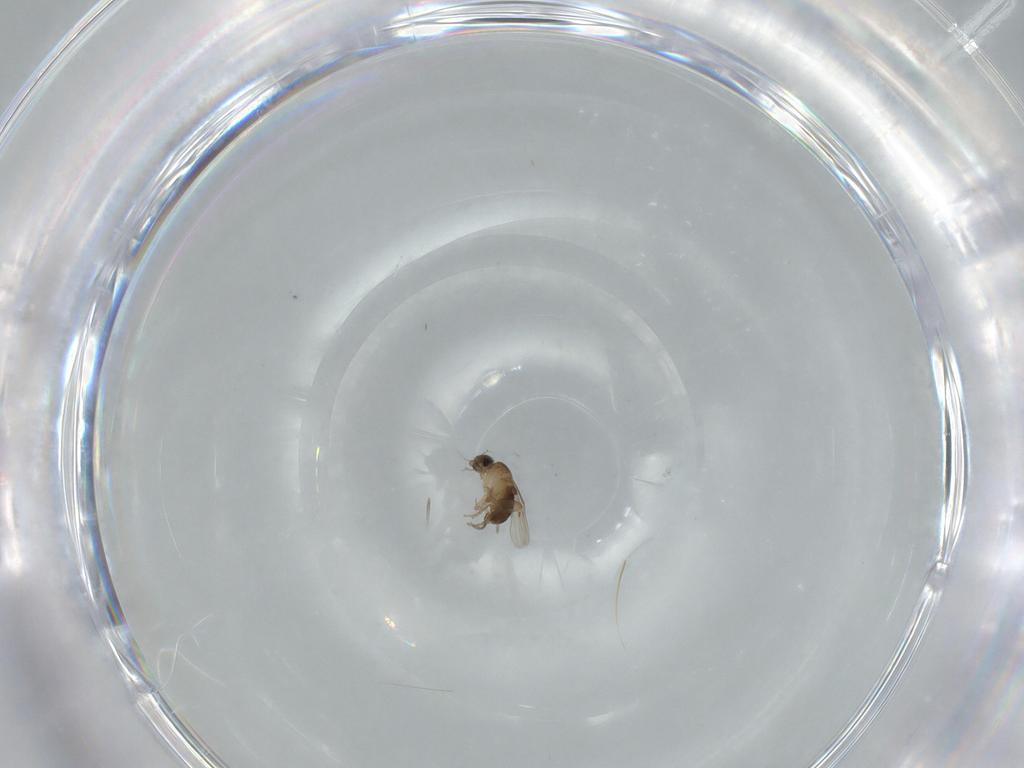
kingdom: Animalia
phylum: Arthropoda
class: Insecta
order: Diptera
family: Phoridae
